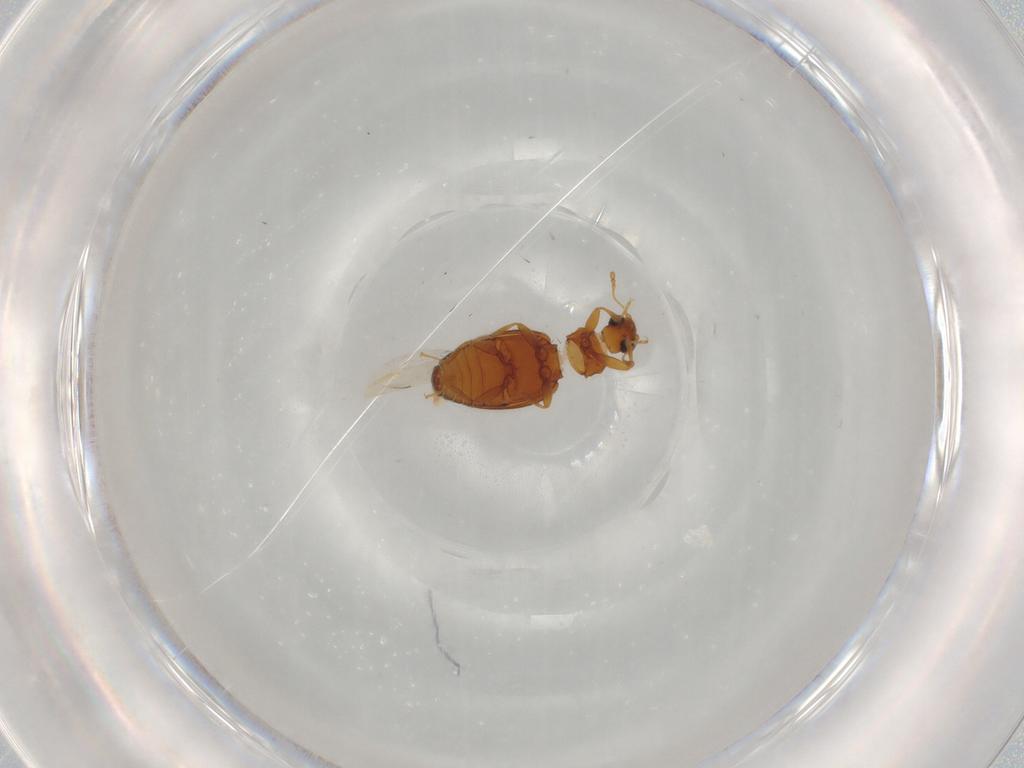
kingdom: Animalia
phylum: Arthropoda
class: Insecta
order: Coleoptera
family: Latridiidae
